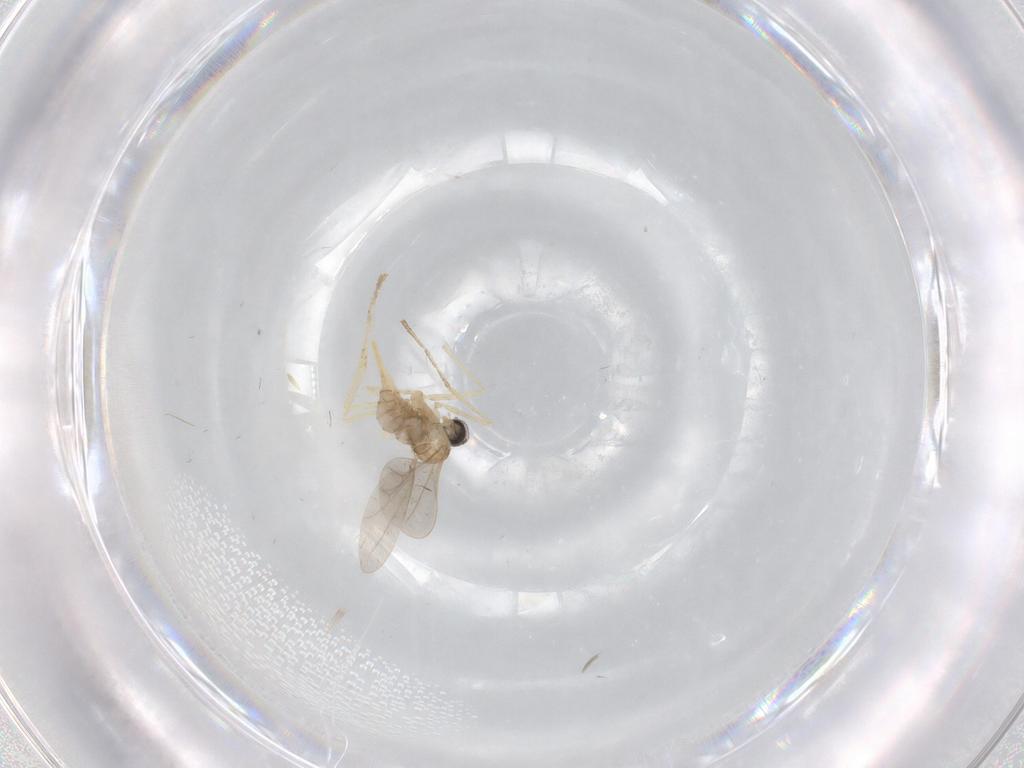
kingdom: Animalia
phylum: Arthropoda
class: Insecta
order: Diptera
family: Cecidomyiidae
